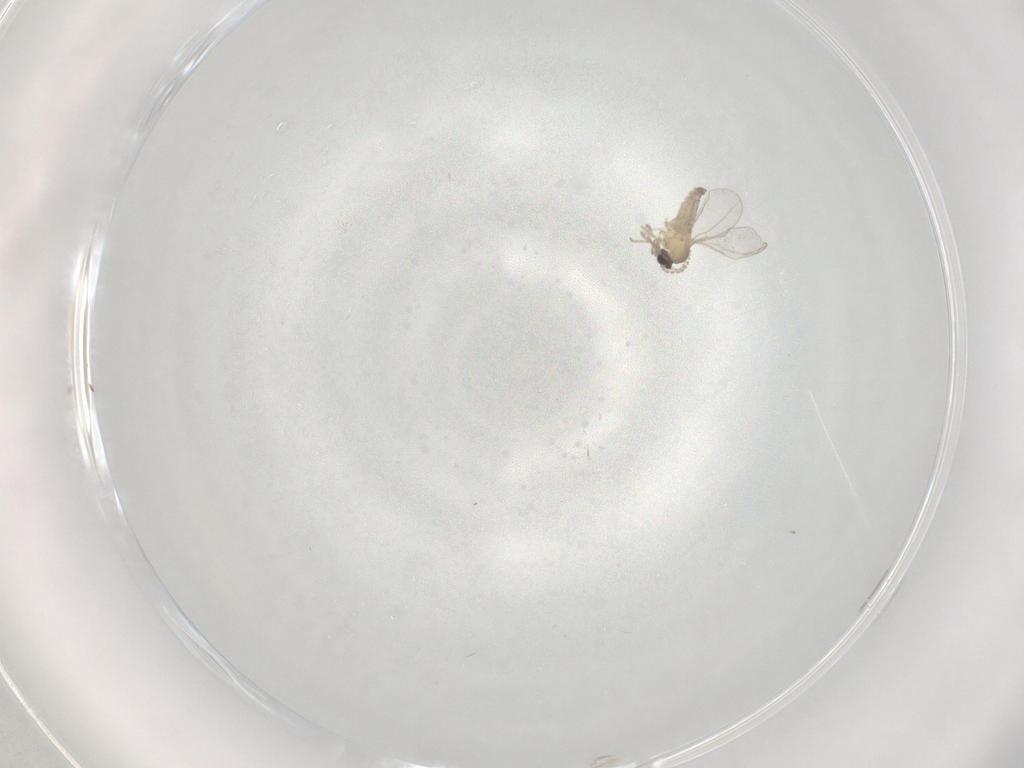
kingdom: Animalia
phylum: Arthropoda
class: Insecta
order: Diptera
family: Cecidomyiidae
